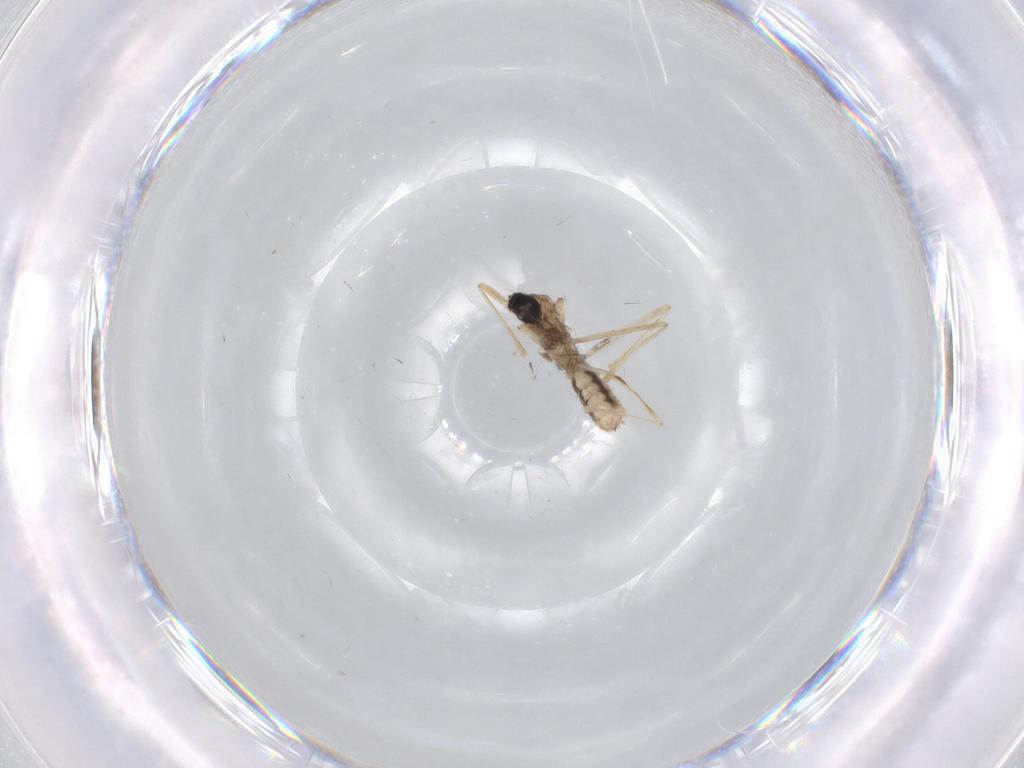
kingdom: Animalia
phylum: Arthropoda
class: Insecta
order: Diptera
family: Cecidomyiidae
